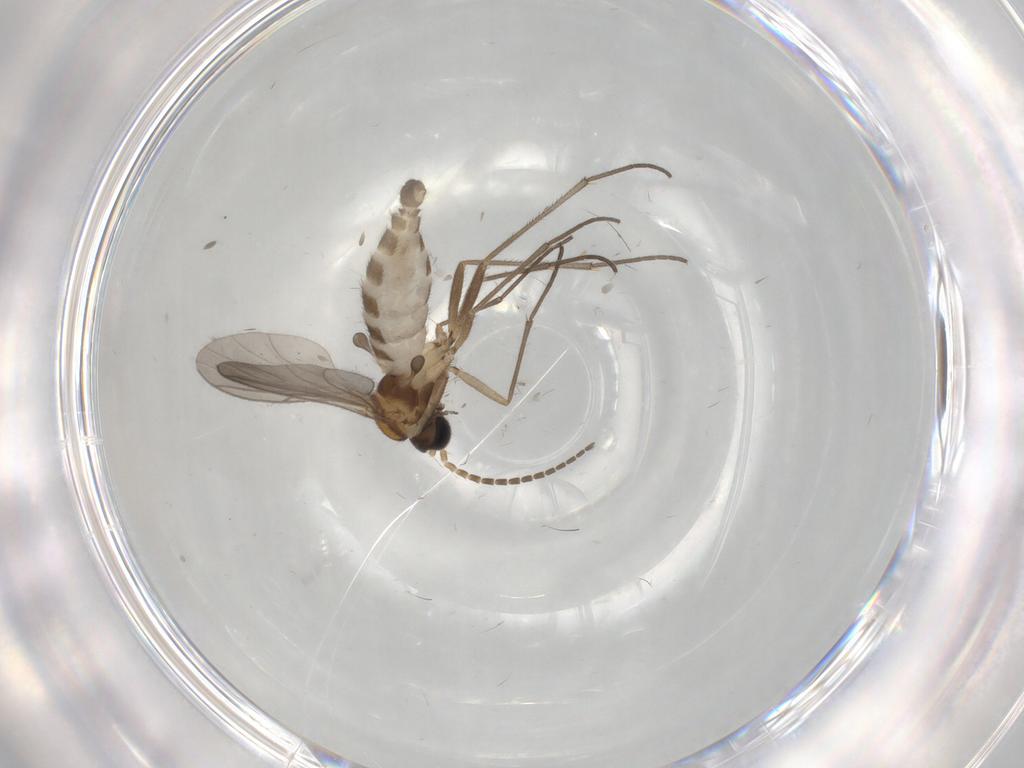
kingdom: Animalia
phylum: Arthropoda
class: Insecta
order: Diptera
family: Sciaridae
